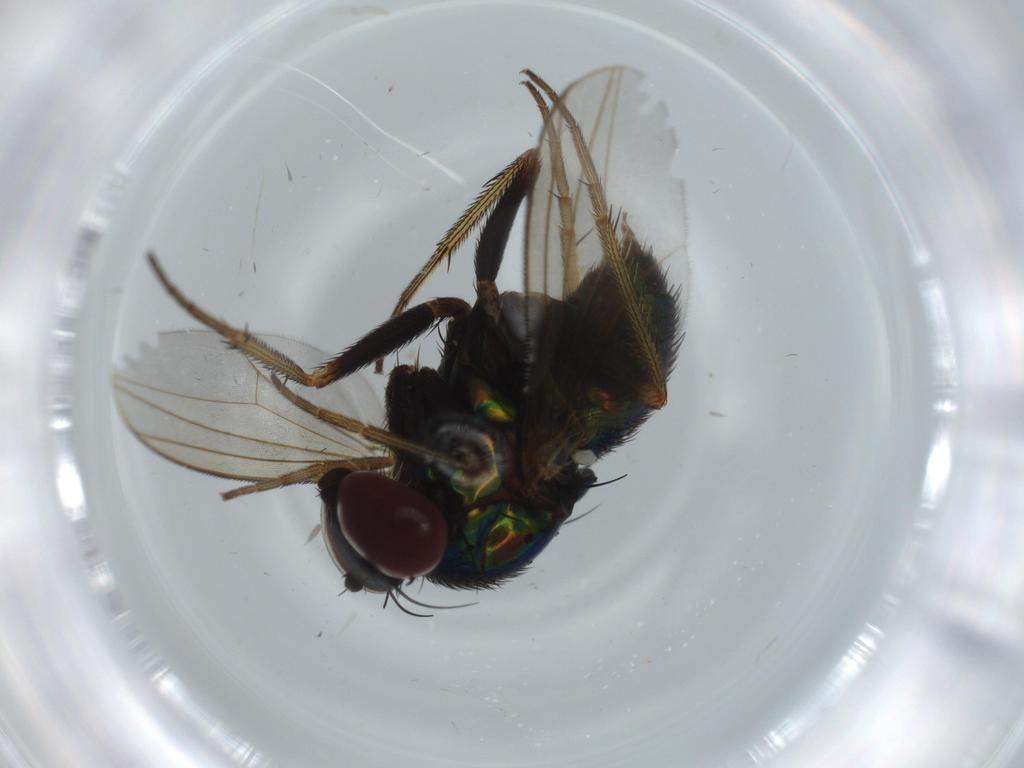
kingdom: Animalia
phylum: Arthropoda
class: Insecta
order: Diptera
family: Dolichopodidae
